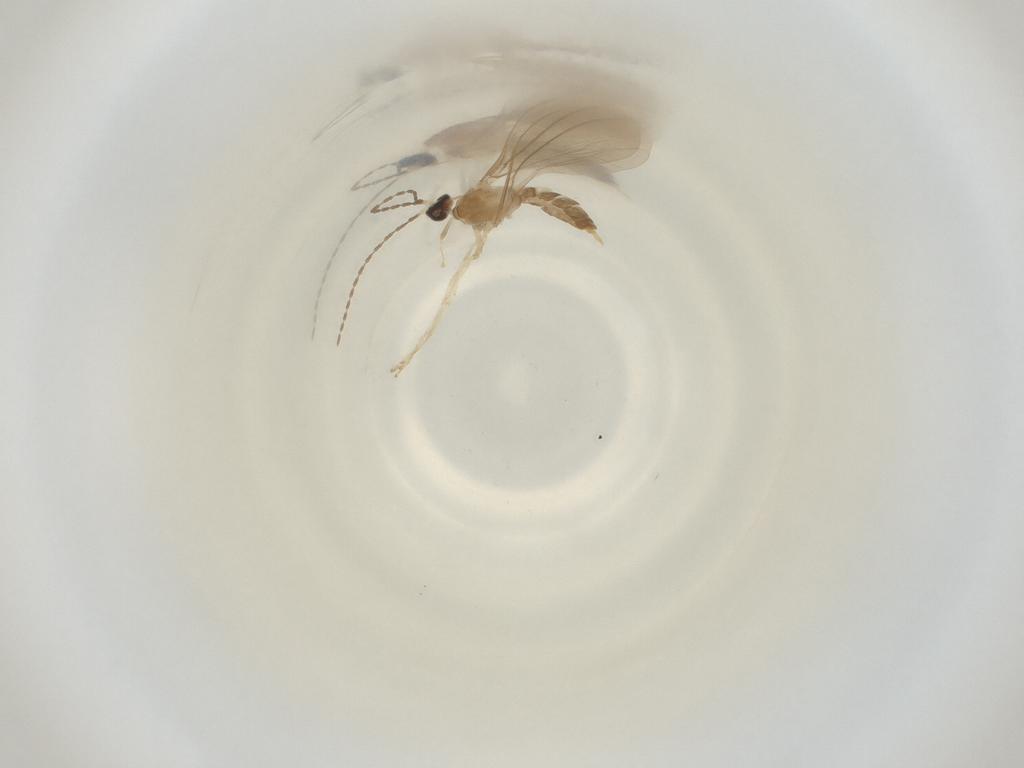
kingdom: Animalia
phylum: Arthropoda
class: Insecta
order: Diptera
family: Cecidomyiidae
